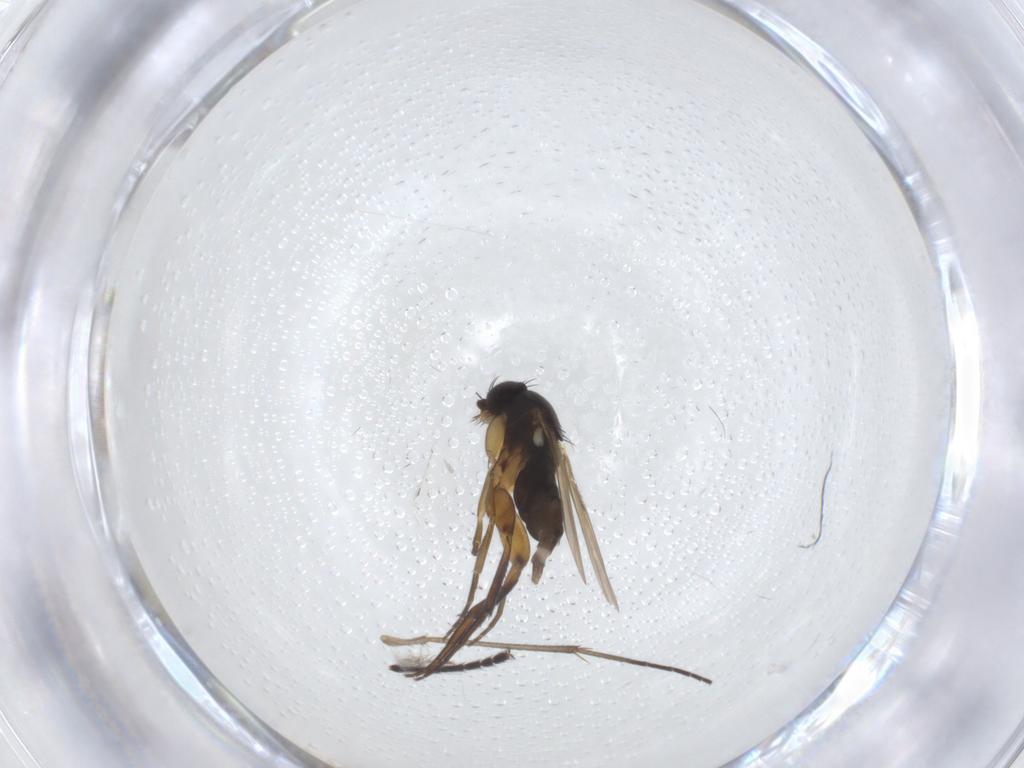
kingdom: Animalia
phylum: Arthropoda
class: Insecta
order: Diptera
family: Phoridae
